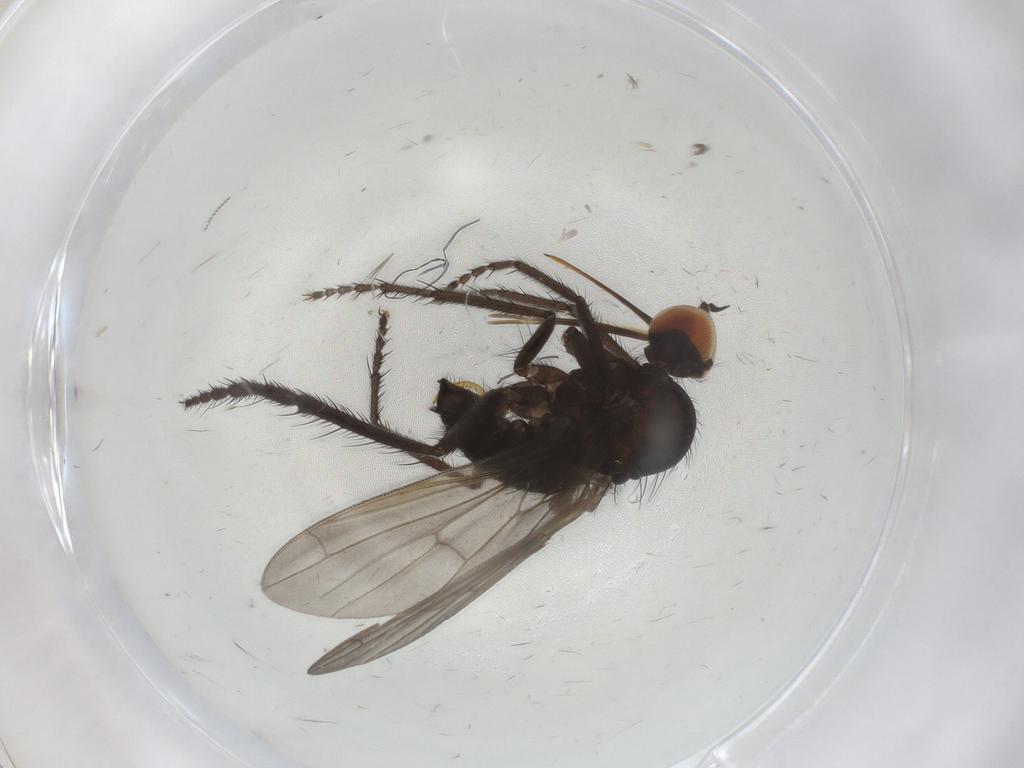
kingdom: Animalia
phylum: Arthropoda
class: Insecta
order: Diptera
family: Empididae
